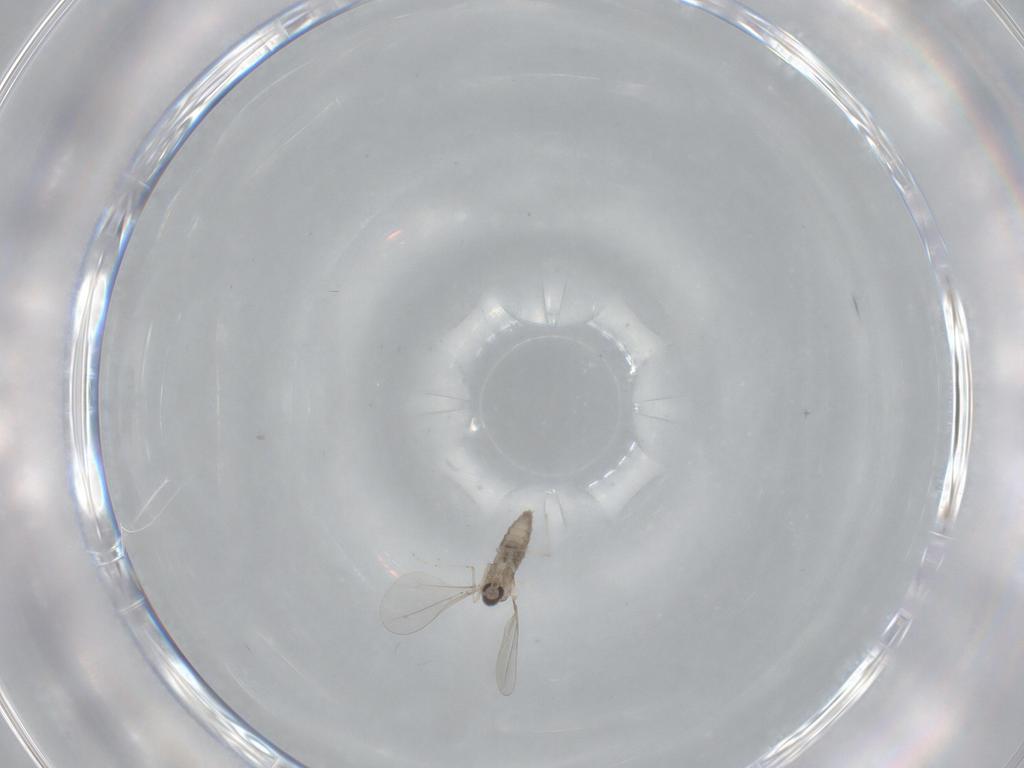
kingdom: Animalia
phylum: Arthropoda
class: Insecta
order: Diptera
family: Cecidomyiidae
